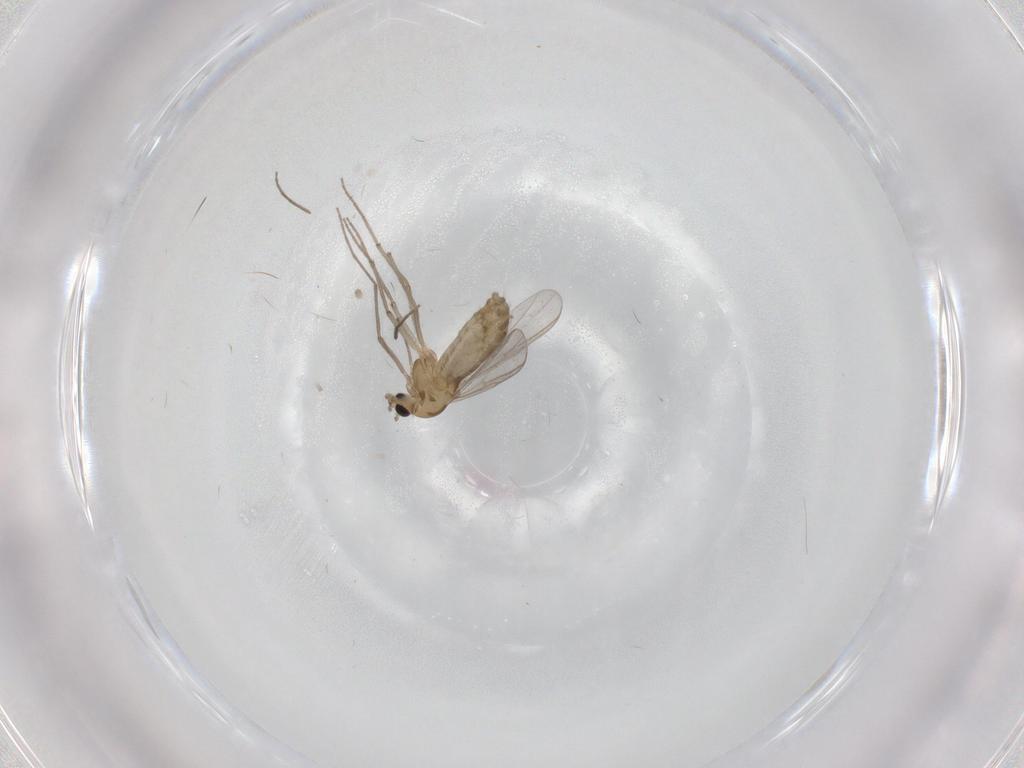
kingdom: Animalia
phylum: Arthropoda
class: Insecta
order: Diptera
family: Chironomidae
